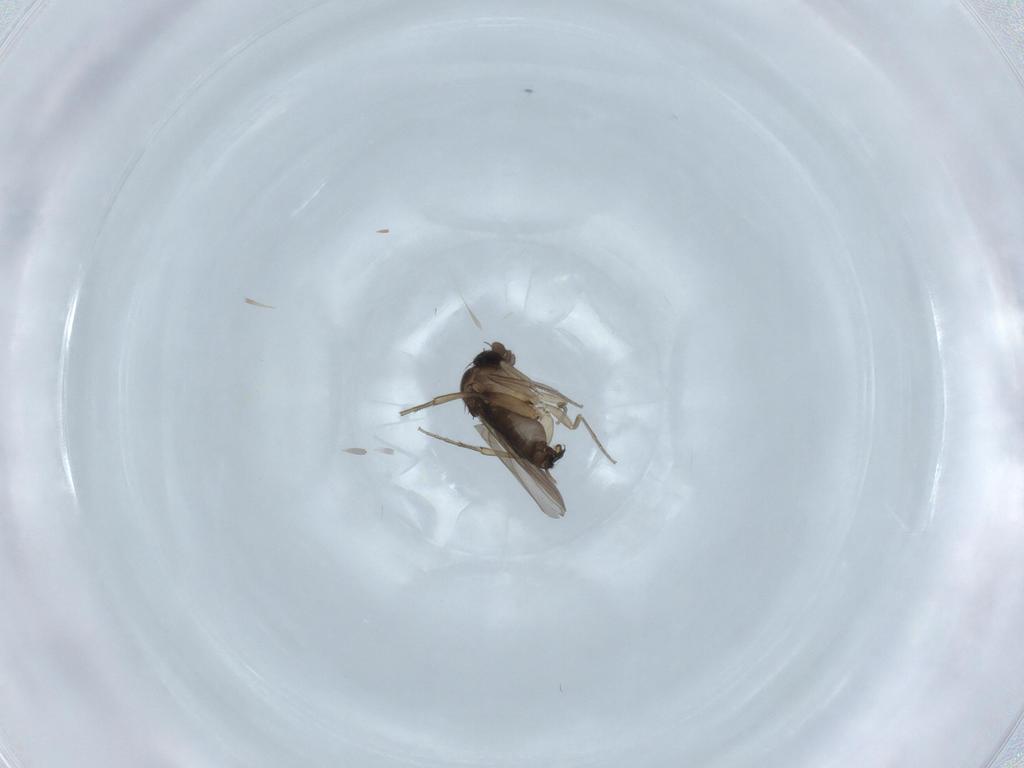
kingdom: Animalia
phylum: Arthropoda
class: Insecta
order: Diptera
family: Phoridae
